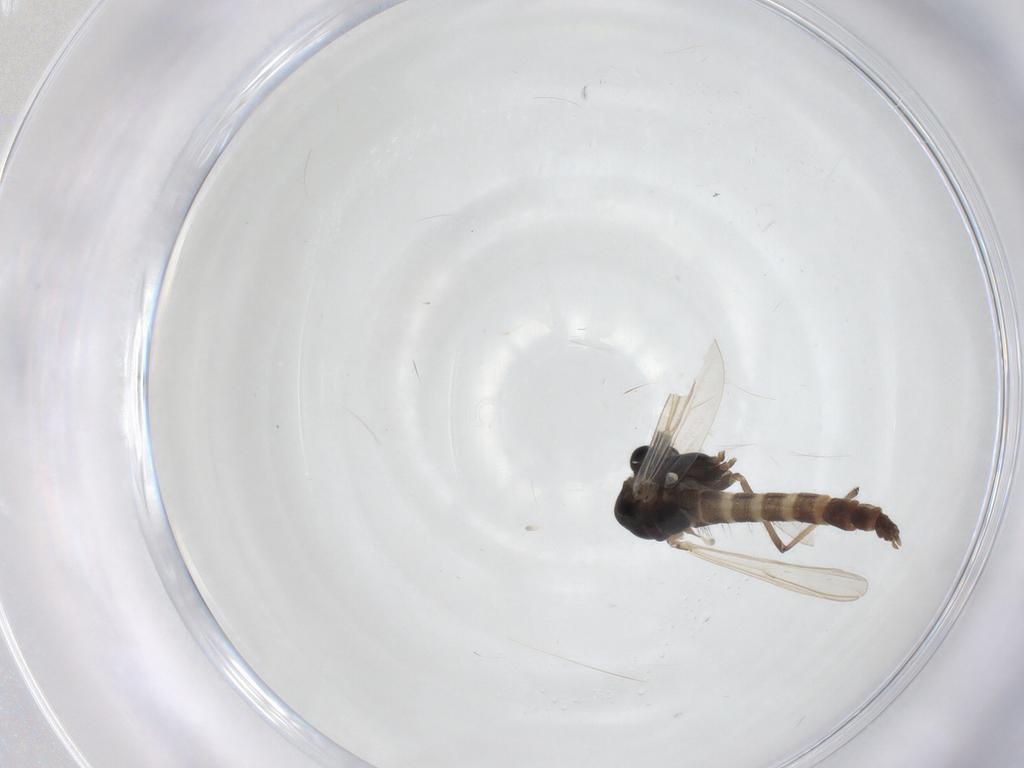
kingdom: Animalia
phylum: Arthropoda
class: Insecta
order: Diptera
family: Chironomidae
